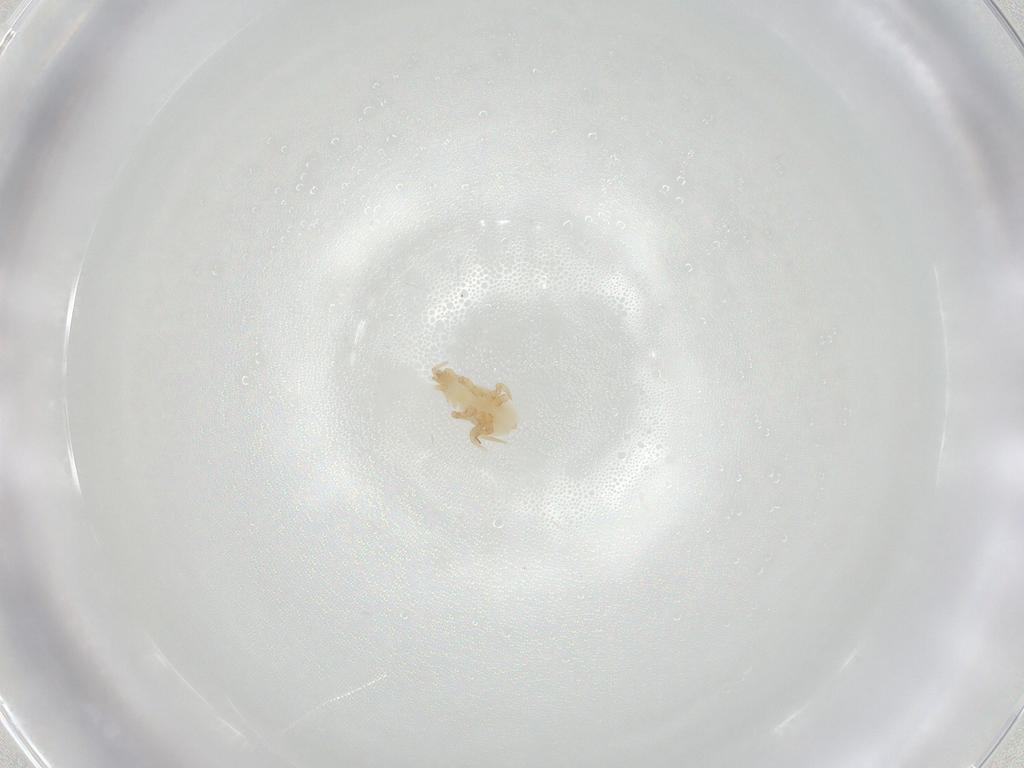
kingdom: Animalia
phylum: Arthropoda
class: Arachnida
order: Mesostigmata
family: Parasitidae
